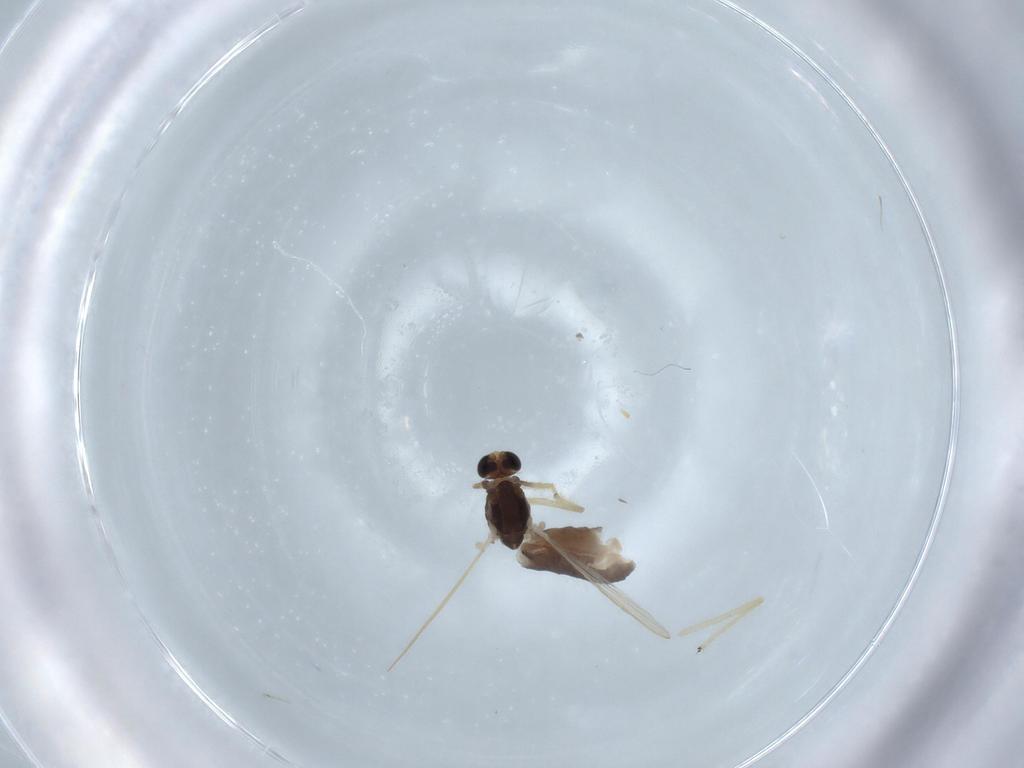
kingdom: Animalia
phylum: Arthropoda
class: Insecta
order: Diptera
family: Chironomidae
